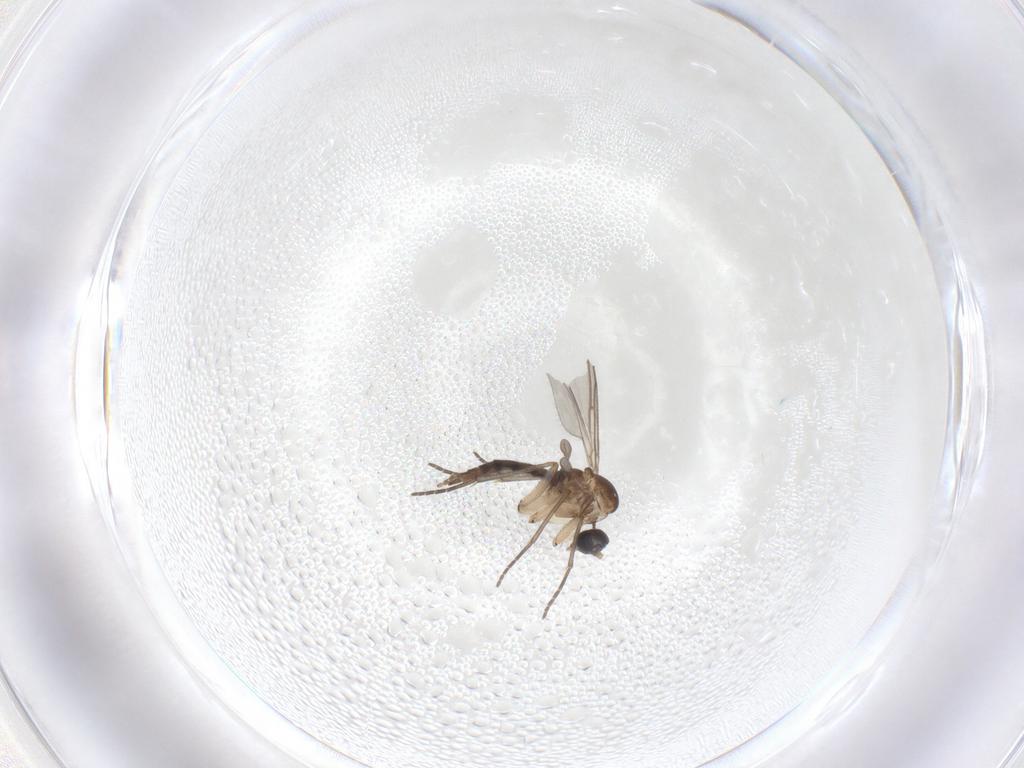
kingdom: Animalia
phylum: Arthropoda
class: Insecta
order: Diptera
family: Sciaridae
